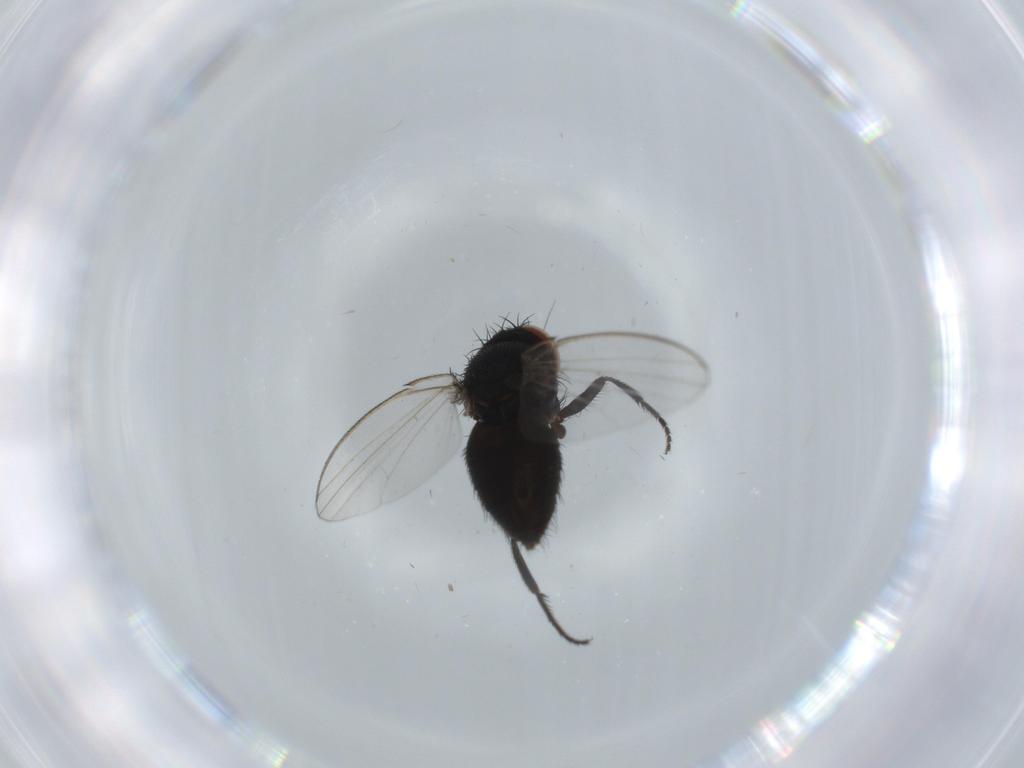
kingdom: Animalia
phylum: Arthropoda
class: Insecta
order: Diptera
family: Milichiidae
